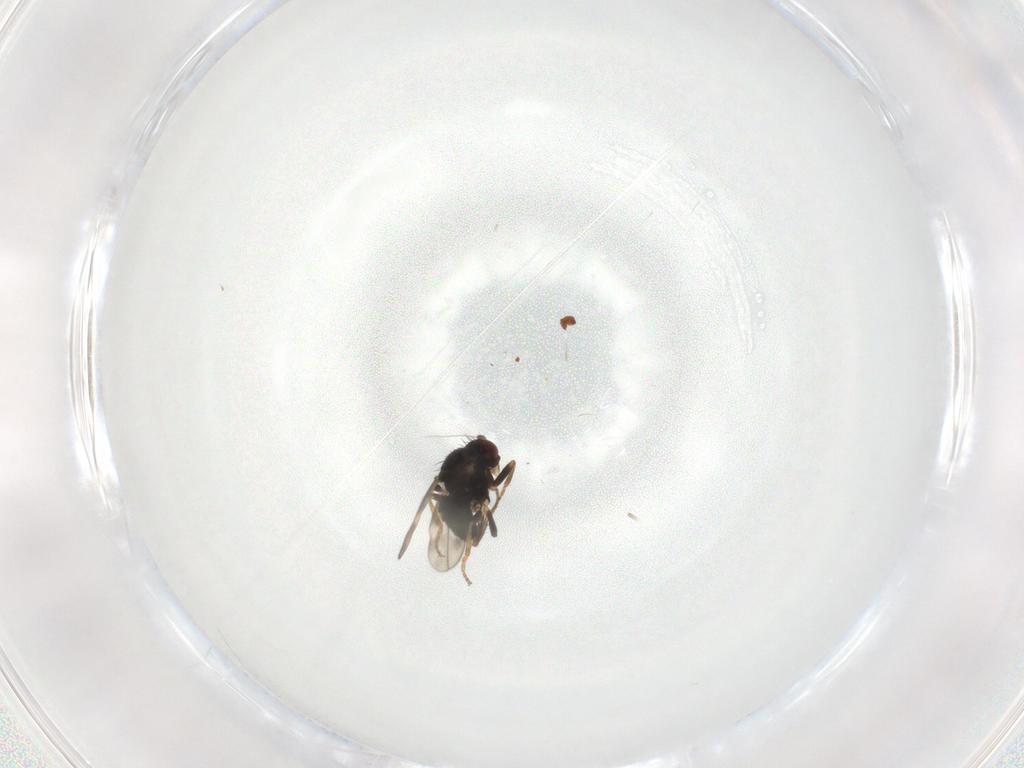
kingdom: Animalia
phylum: Arthropoda
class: Insecta
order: Diptera
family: Sphaeroceridae
